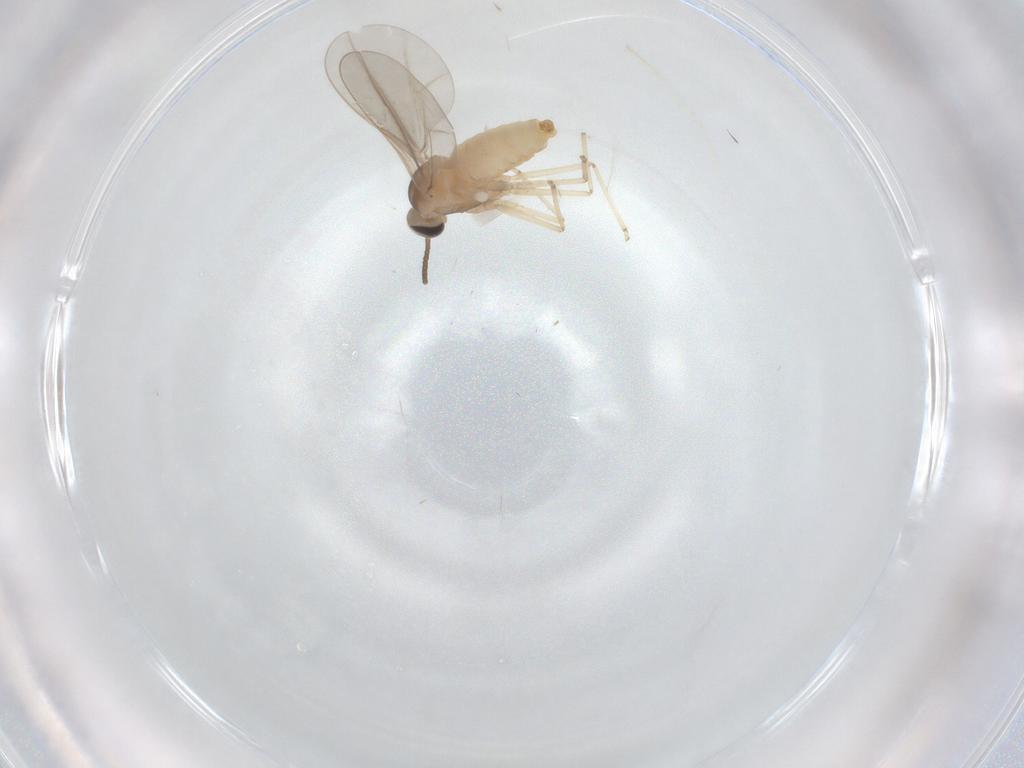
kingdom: Animalia
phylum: Arthropoda
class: Insecta
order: Diptera
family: Cecidomyiidae
